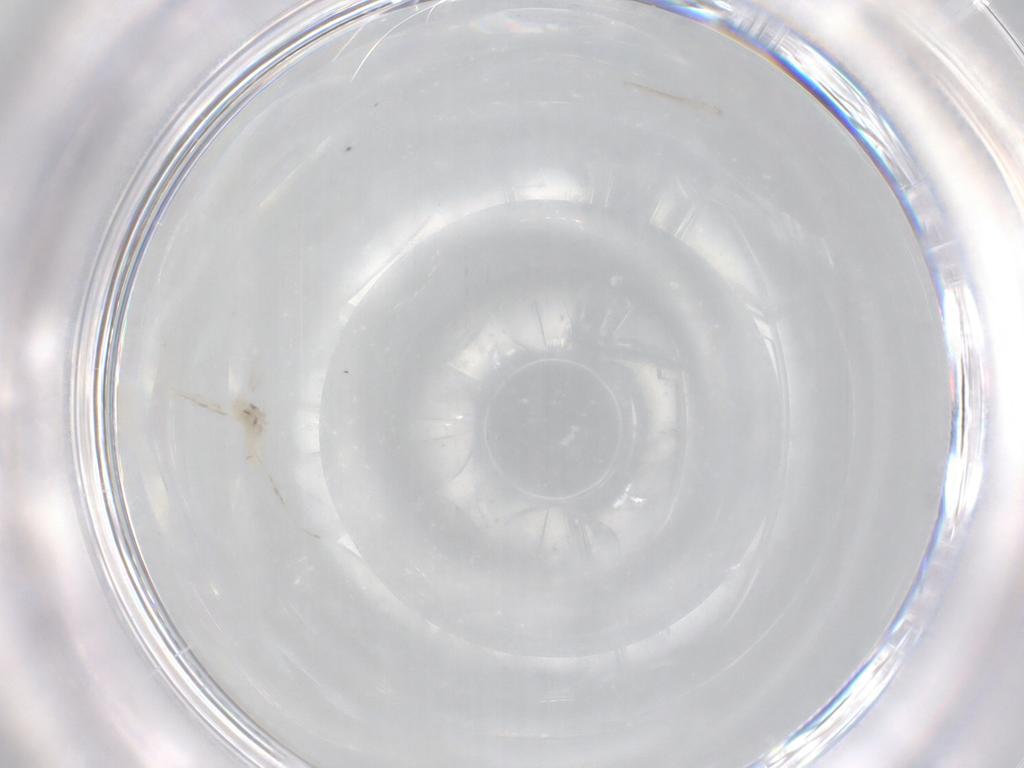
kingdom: Animalia
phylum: Arthropoda
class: Insecta
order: Diptera
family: Cecidomyiidae
